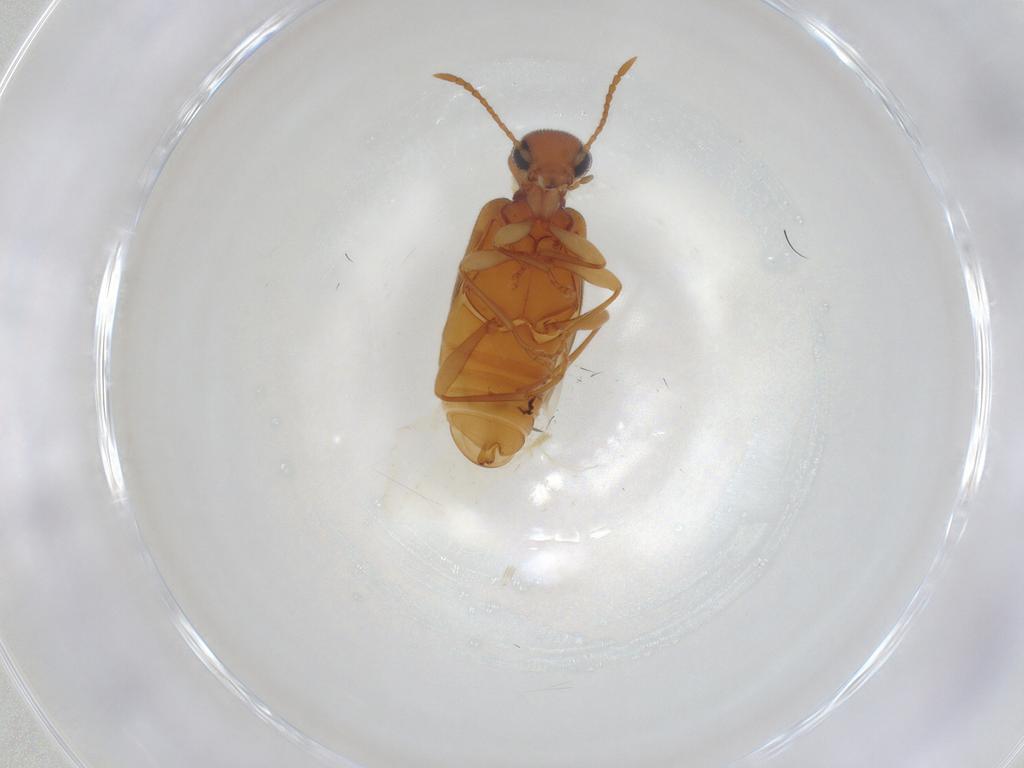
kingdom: Animalia
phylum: Arthropoda
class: Insecta
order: Coleoptera
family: Anthicidae
